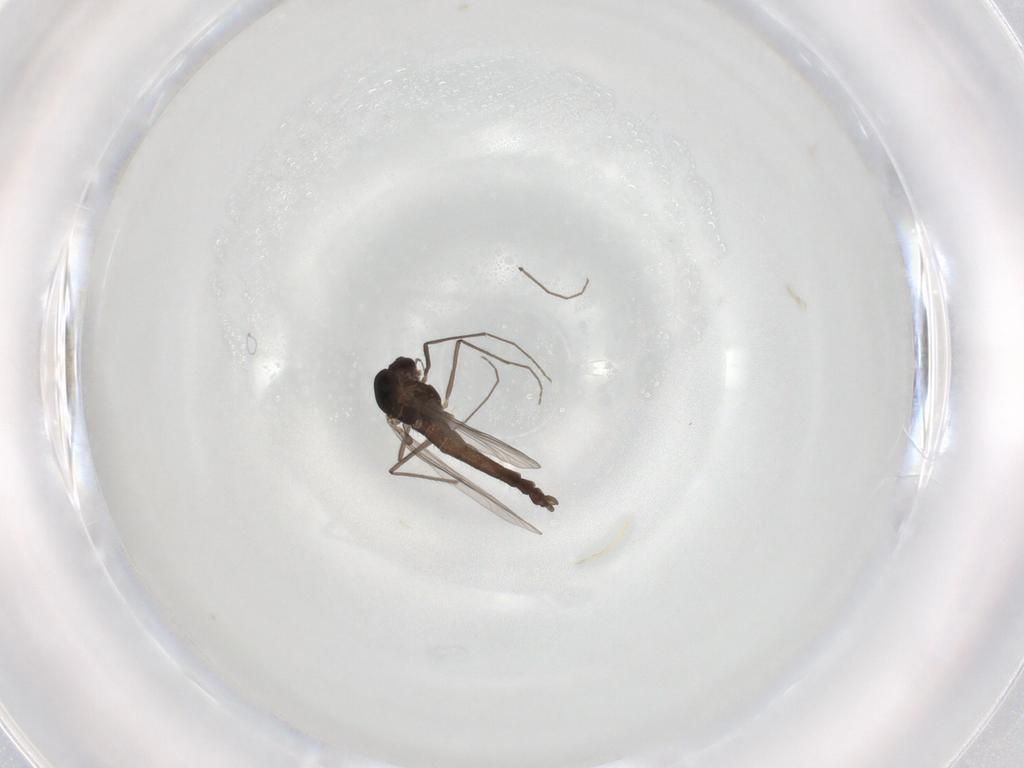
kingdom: Animalia
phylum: Arthropoda
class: Insecta
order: Diptera
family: Chironomidae
